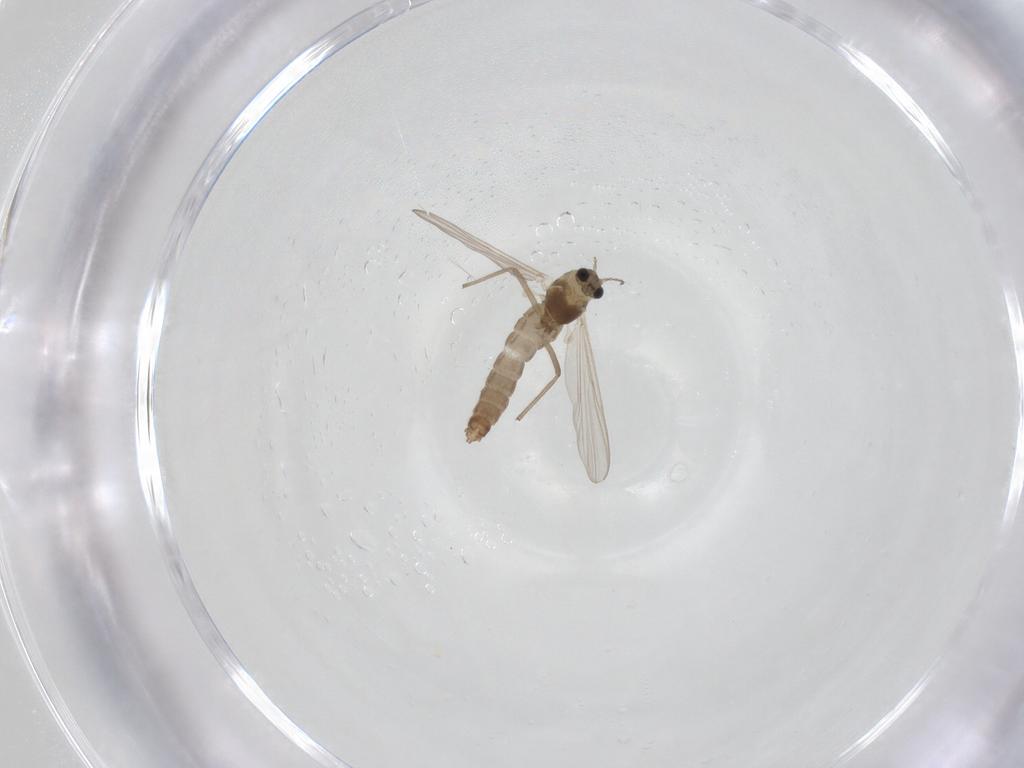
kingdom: Animalia
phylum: Arthropoda
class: Insecta
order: Diptera
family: Chironomidae
